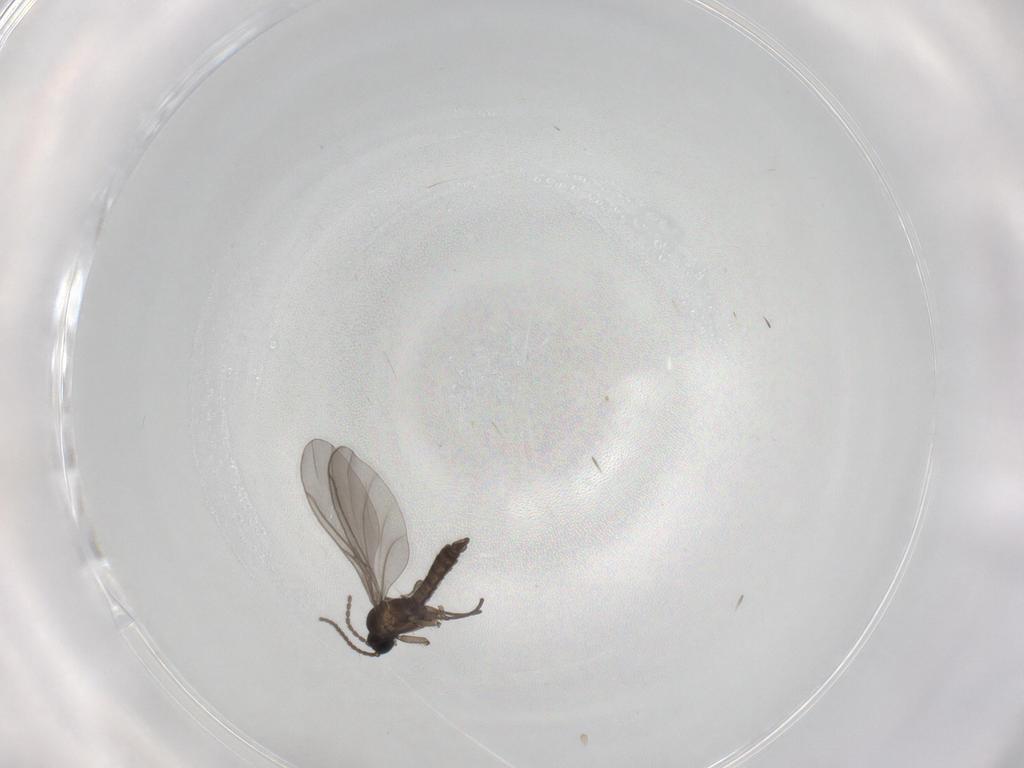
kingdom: Animalia
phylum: Arthropoda
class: Insecta
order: Diptera
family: Sciaridae
